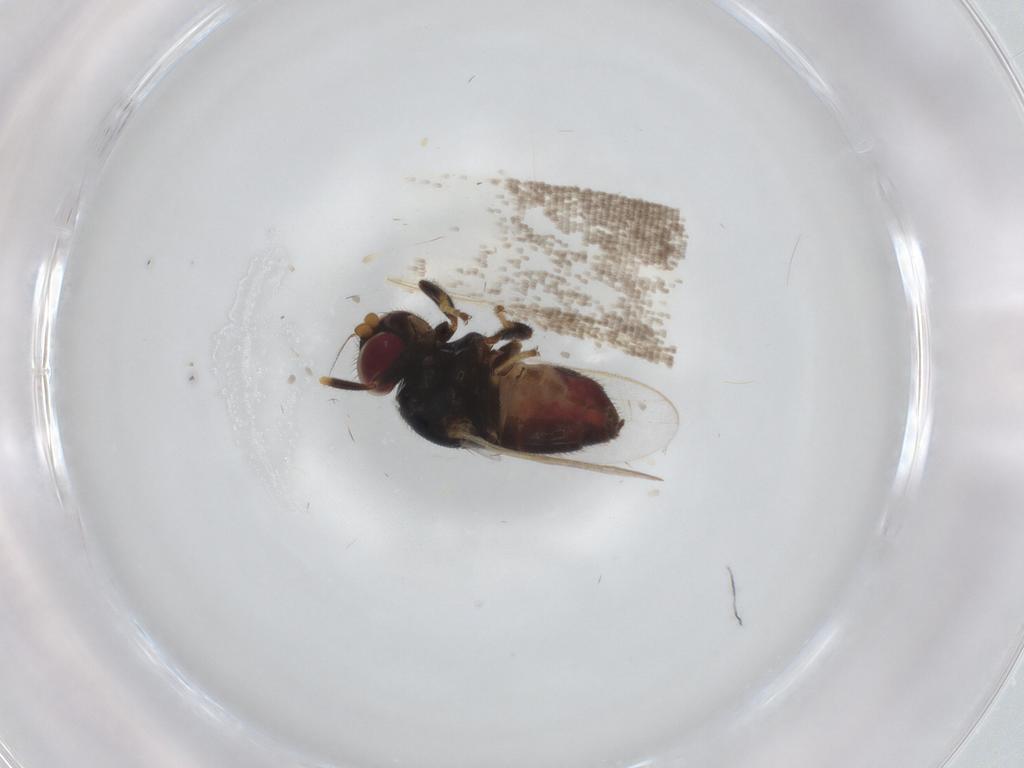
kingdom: Animalia
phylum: Arthropoda
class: Insecta
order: Diptera
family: Chloropidae
